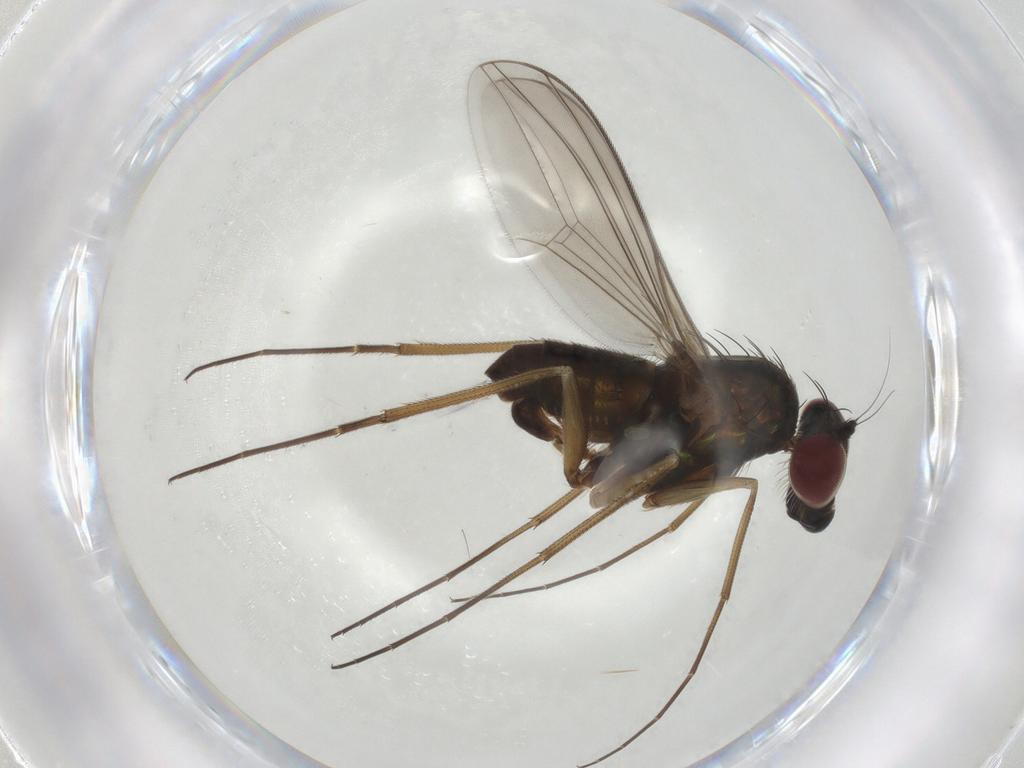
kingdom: Animalia
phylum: Arthropoda
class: Insecta
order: Diptera
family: Dolichopodidae
